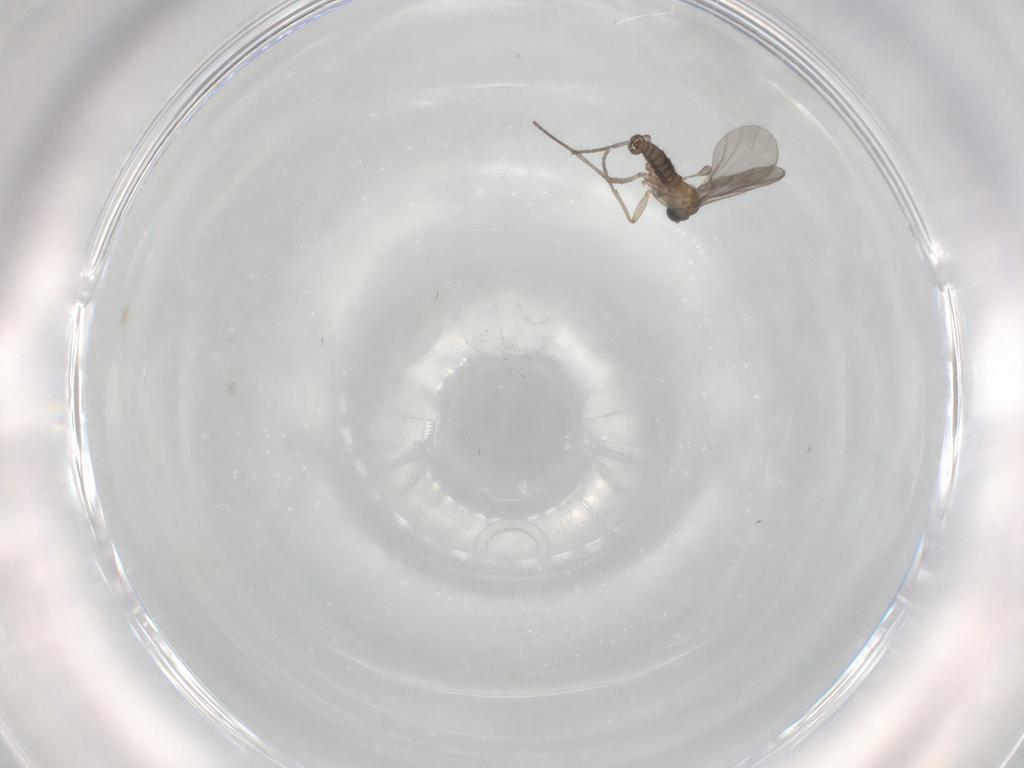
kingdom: Animalia
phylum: Arthropoda
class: Insecta
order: Diptera
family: Sciaridae
